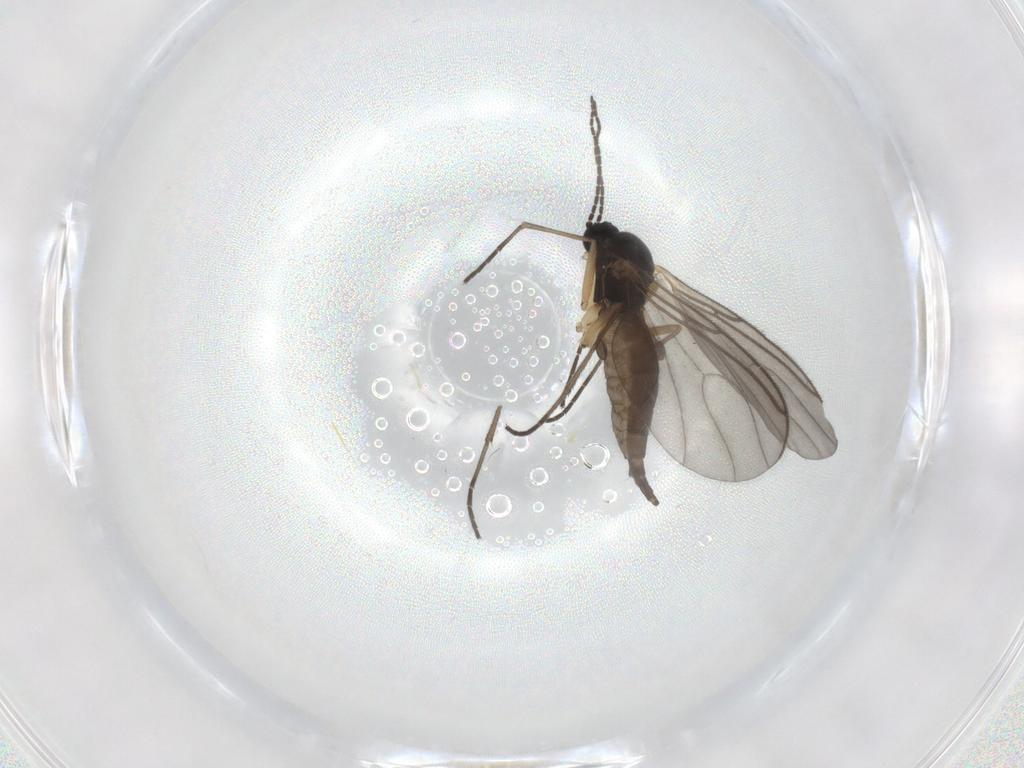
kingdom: Animalia
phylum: Arthropoda
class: Insecta
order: Diptera
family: Sciaridae
